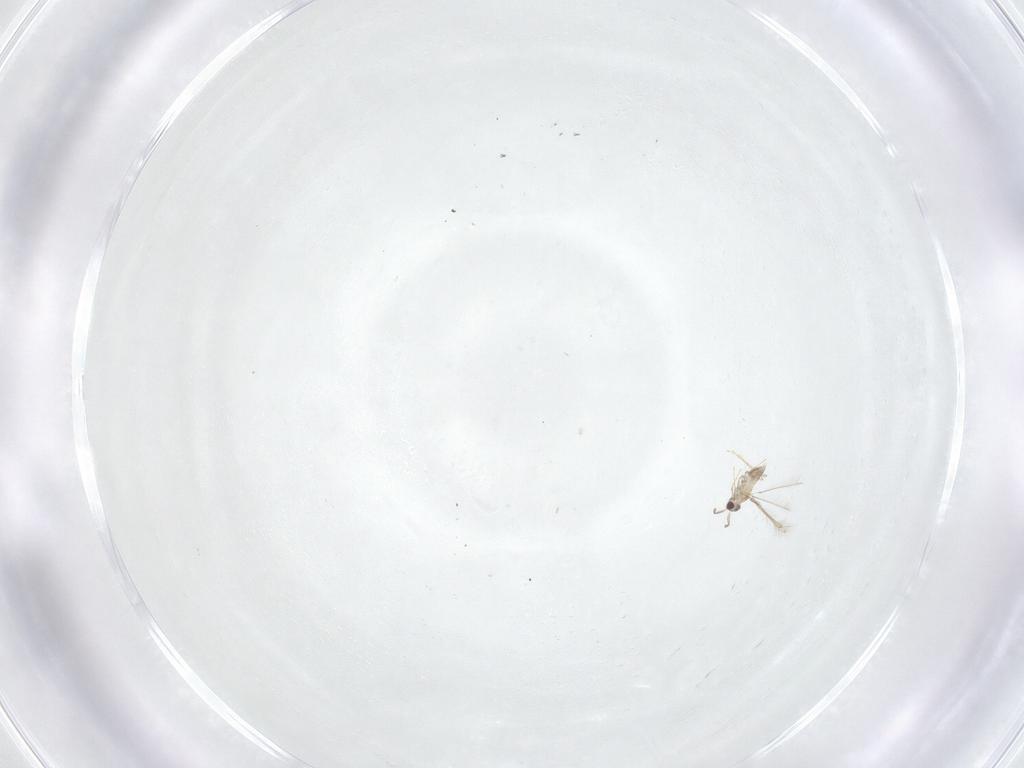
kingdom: Animalia
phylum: Arthropoda
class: Insecta
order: Hymenoptera
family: Mymaridae
